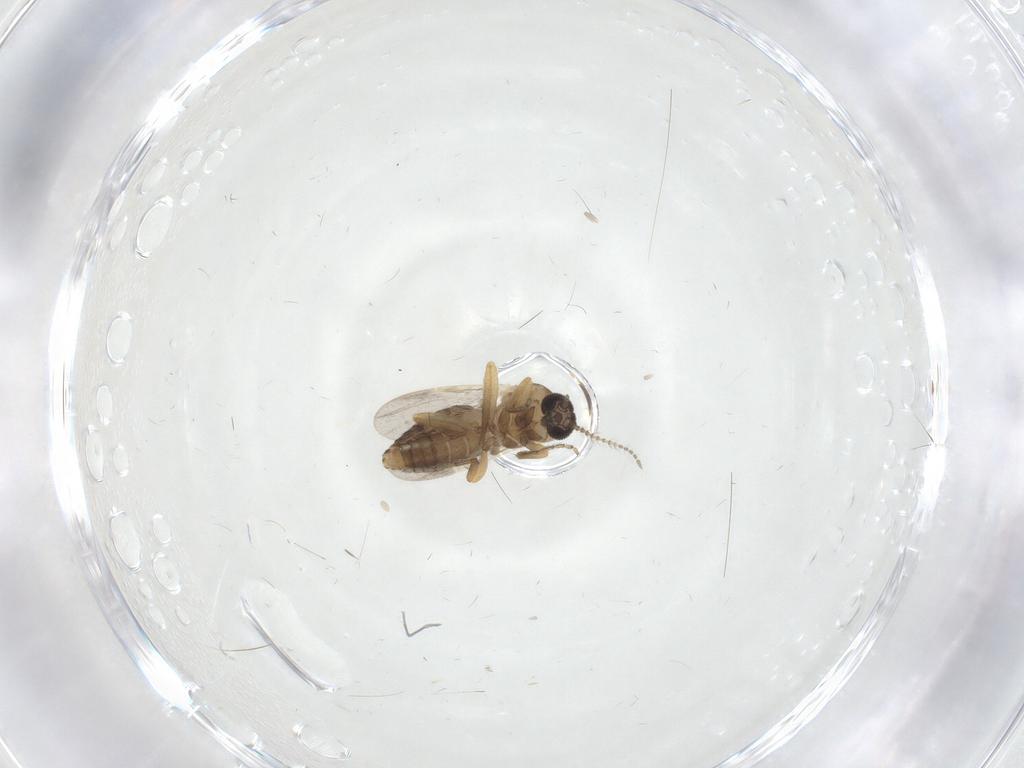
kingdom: Animalia
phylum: Arthropoda
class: Insecta
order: Diptera
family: Ceratopogonidae
